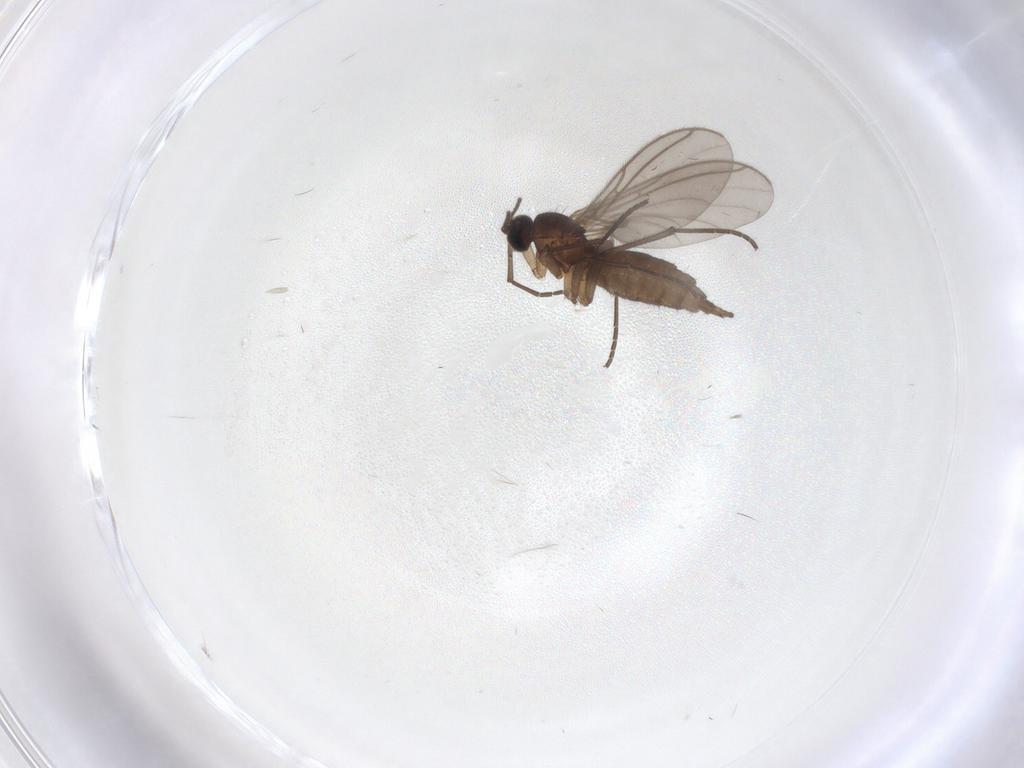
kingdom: Animalia
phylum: Arthropoda
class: Insecta
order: Diptera
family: Sciaridae
